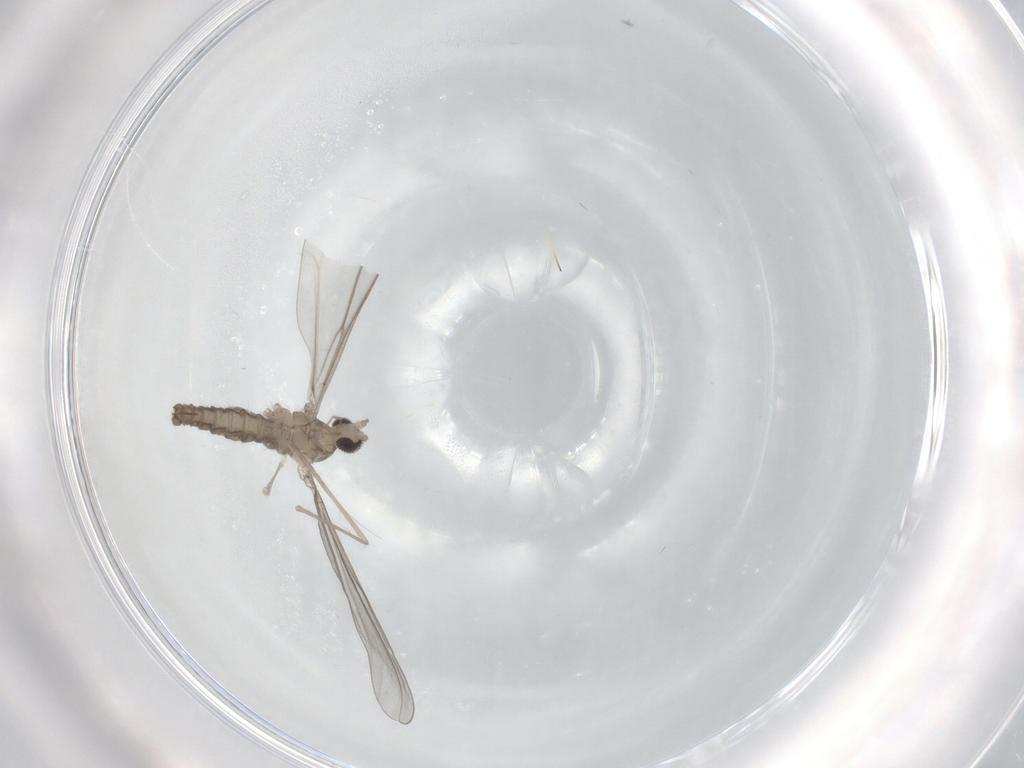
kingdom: Animalia
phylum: Arthropoda
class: Insecta
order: Diptera
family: Cecidomyiidae
